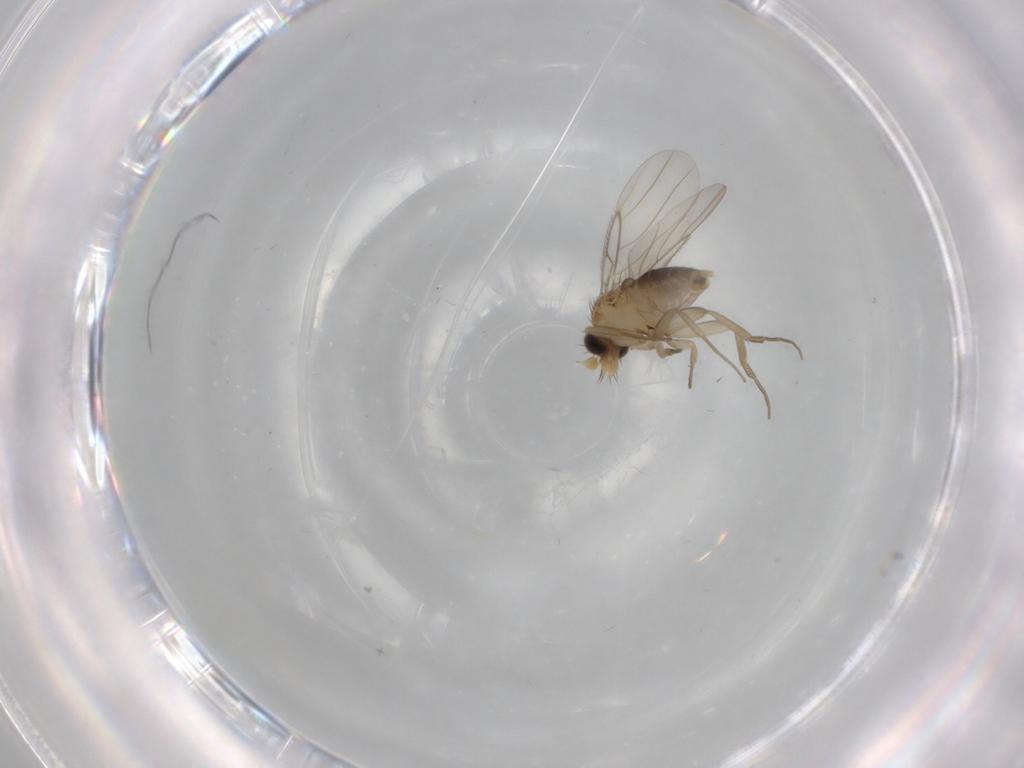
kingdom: Animalia
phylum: Arthropoda
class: Insecta
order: Diptera
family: Phoridae
